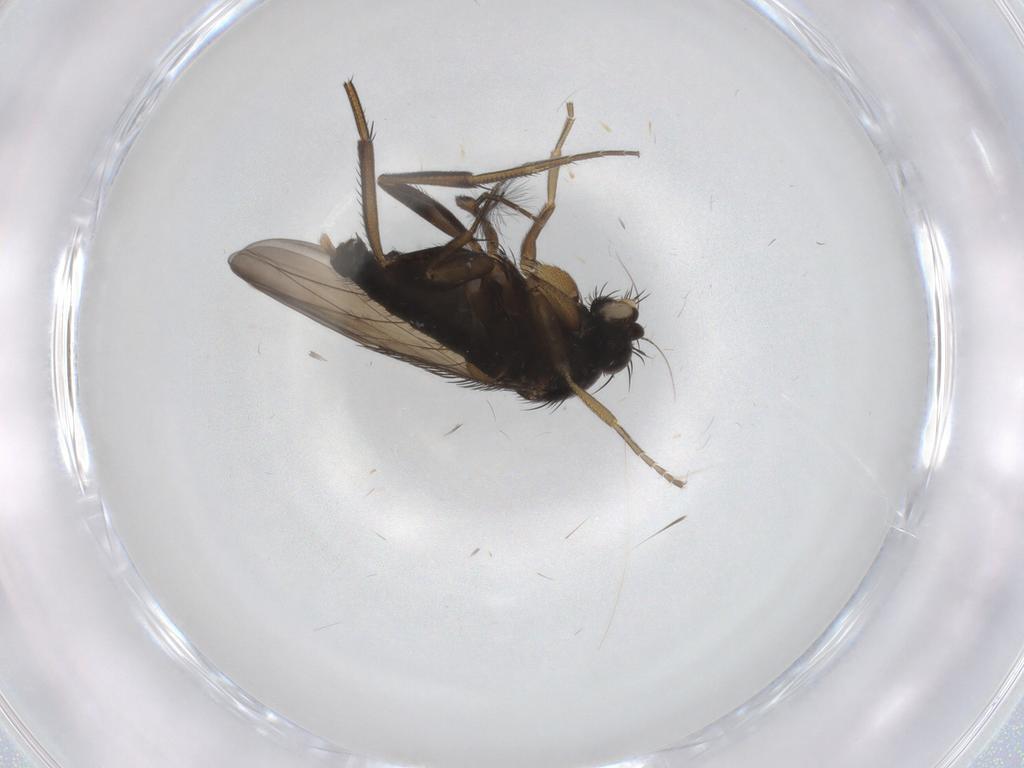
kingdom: Animalia
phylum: Arthropoda
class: Insecta
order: Diptera
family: Phoridae
